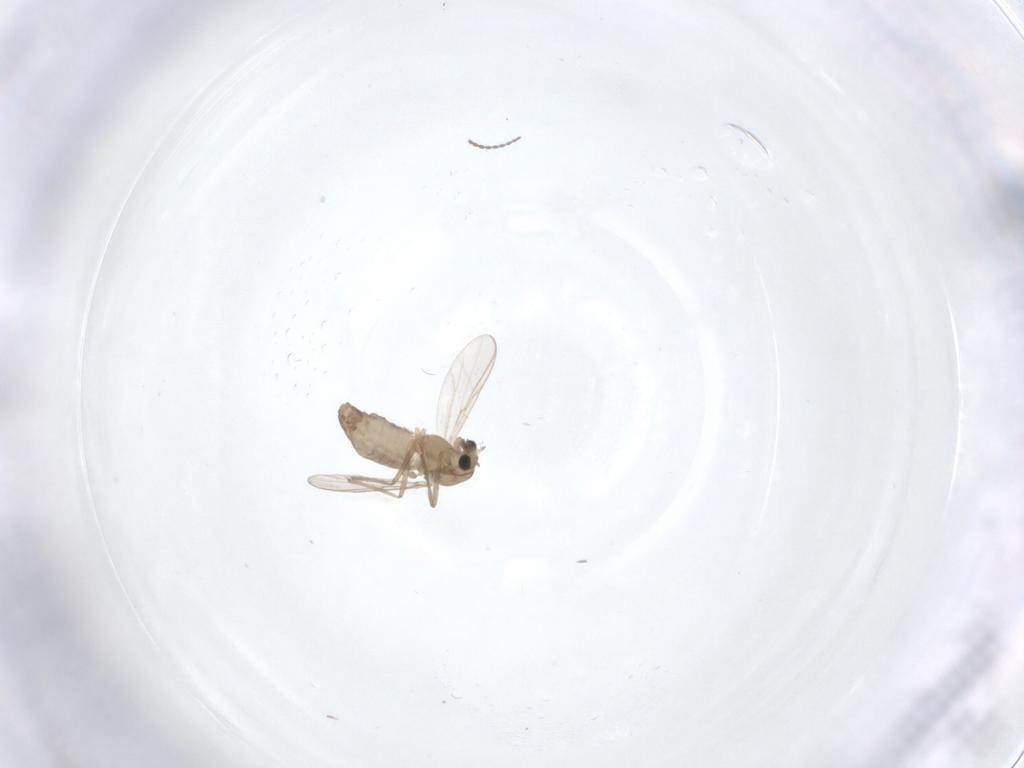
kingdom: Animalia
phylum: Arthropoda
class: Insecta
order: Diptera
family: Cecidomyiidae
